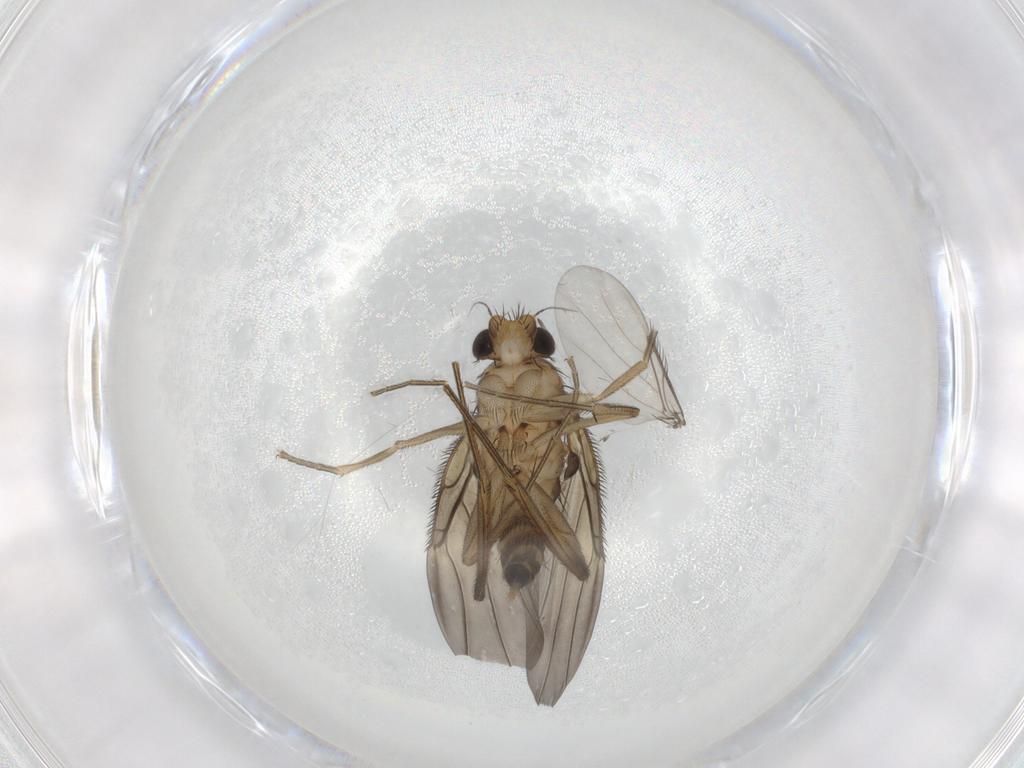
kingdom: Animalia
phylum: Arthropoda
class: Insecta
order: Diptera
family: Phoridae
